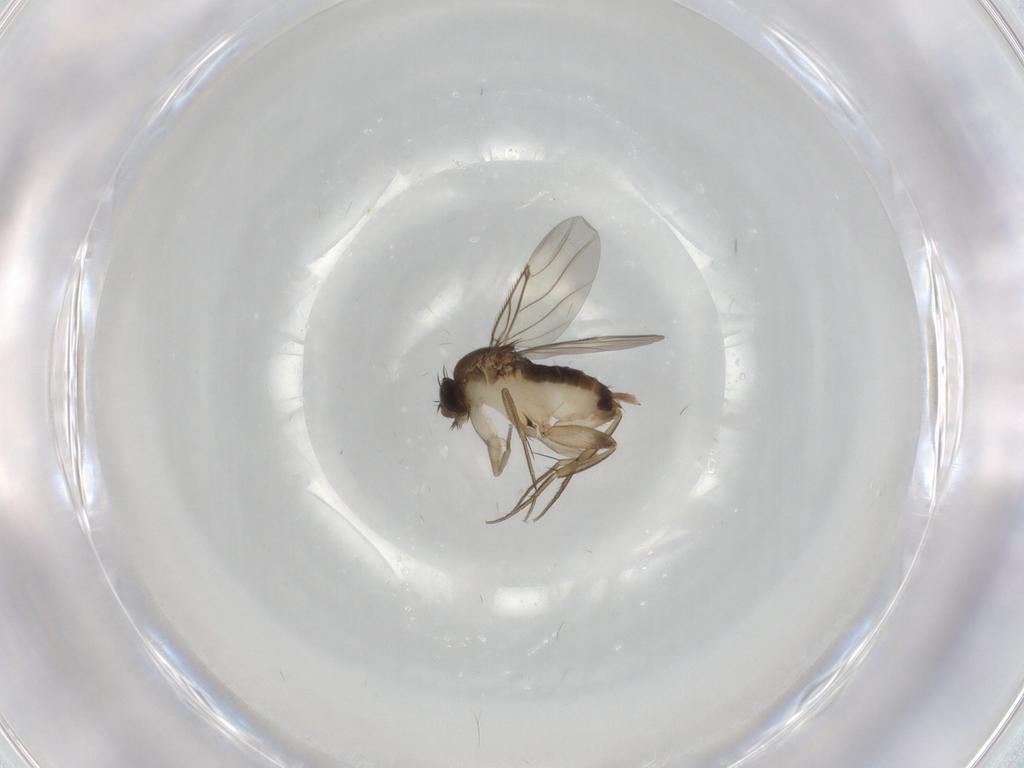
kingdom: Animalia
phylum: Arthropoda
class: Insecta
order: Diptera
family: Phoridae
